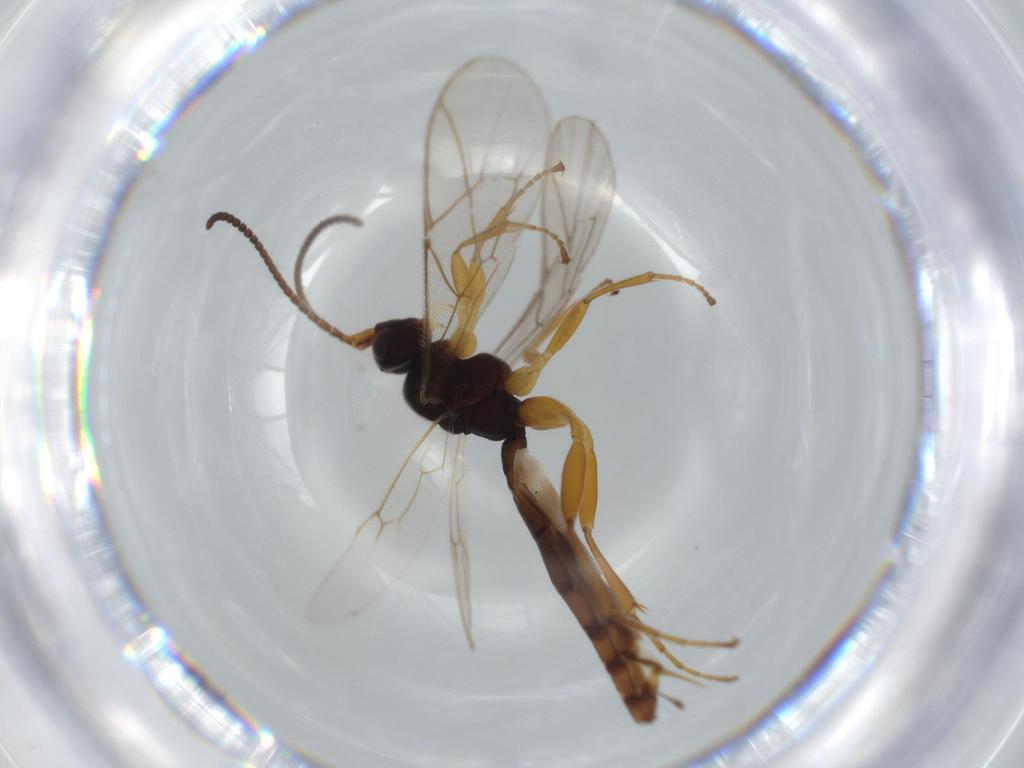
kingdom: Animalia
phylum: Arthropoda
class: Insecta
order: Hymenoptera
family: Ichneumonidae
